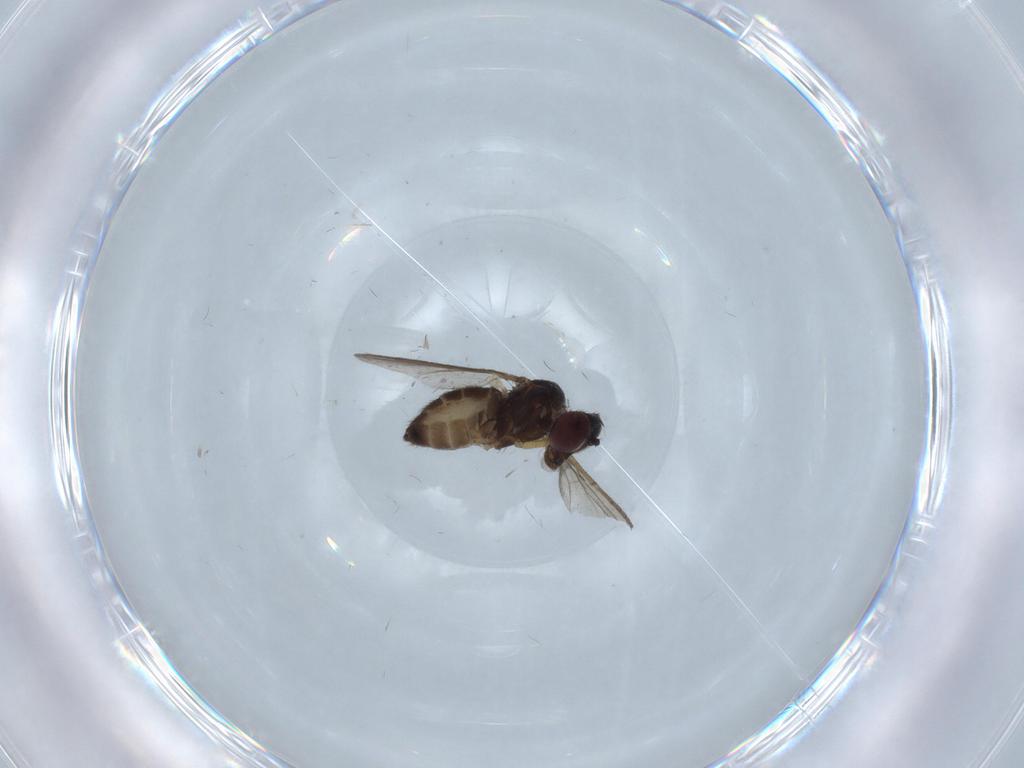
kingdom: Animalia
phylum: Arthropoda
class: Insecta
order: Diptera
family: Dolichopodidae
